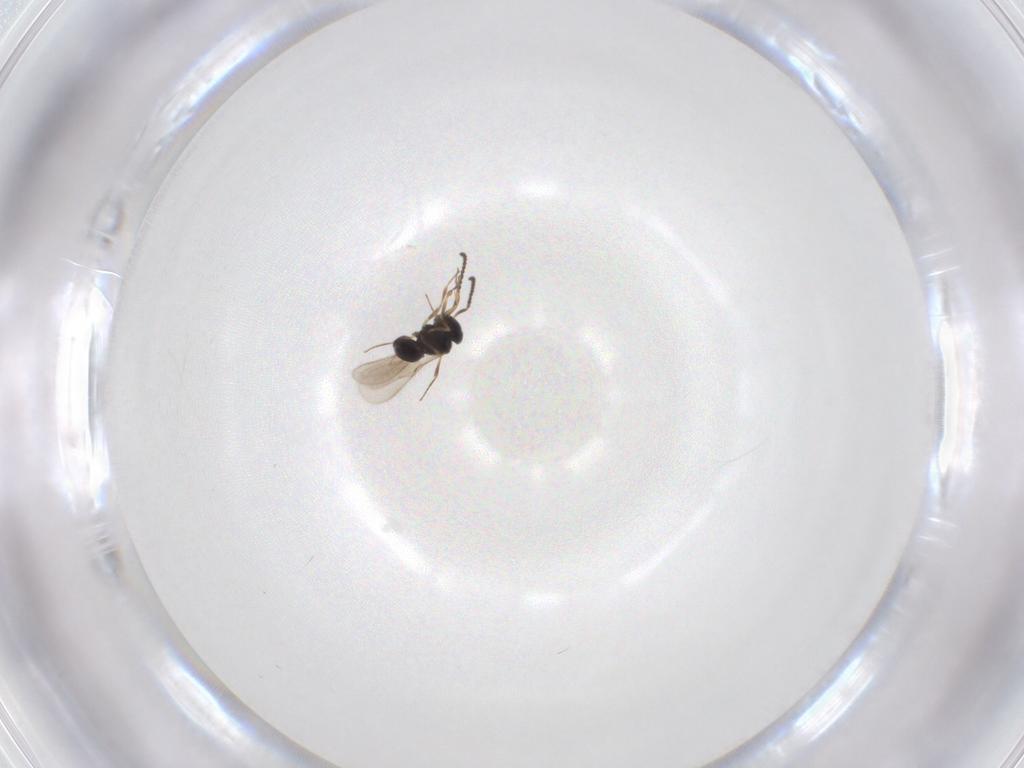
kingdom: Animalia
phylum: Arthropoda
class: Insecta
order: Hymenoptera
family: Scelionidae
